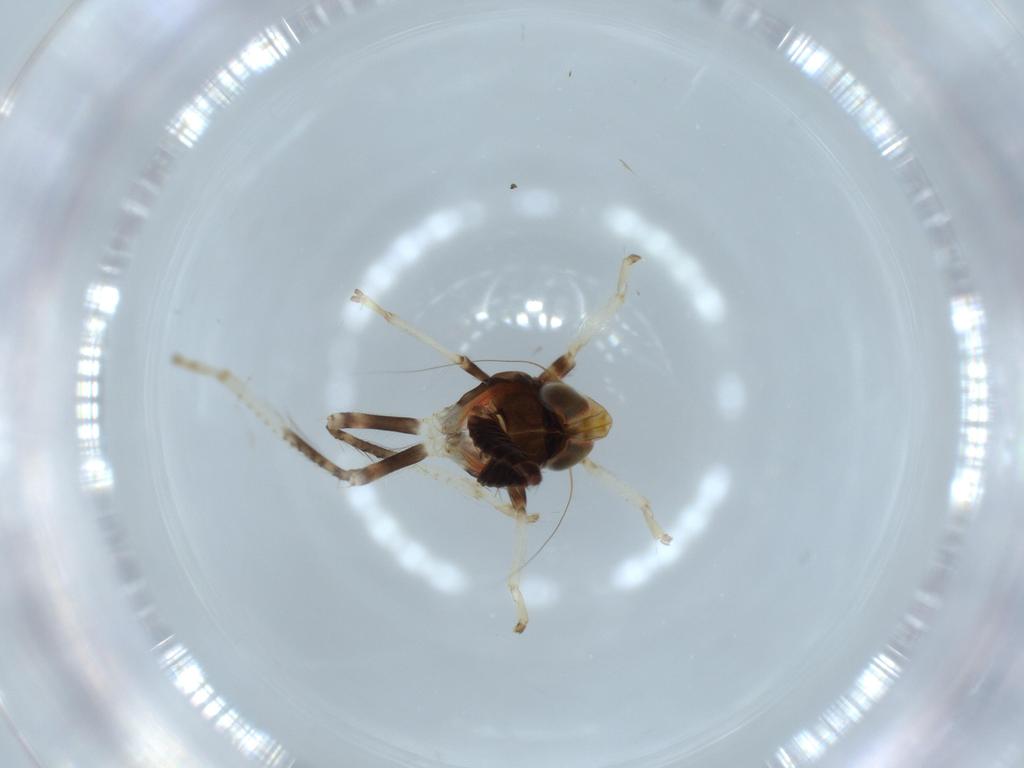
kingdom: Animalia
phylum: Arthropoda
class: Insecta
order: Hemiptera
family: Cicadellidae
